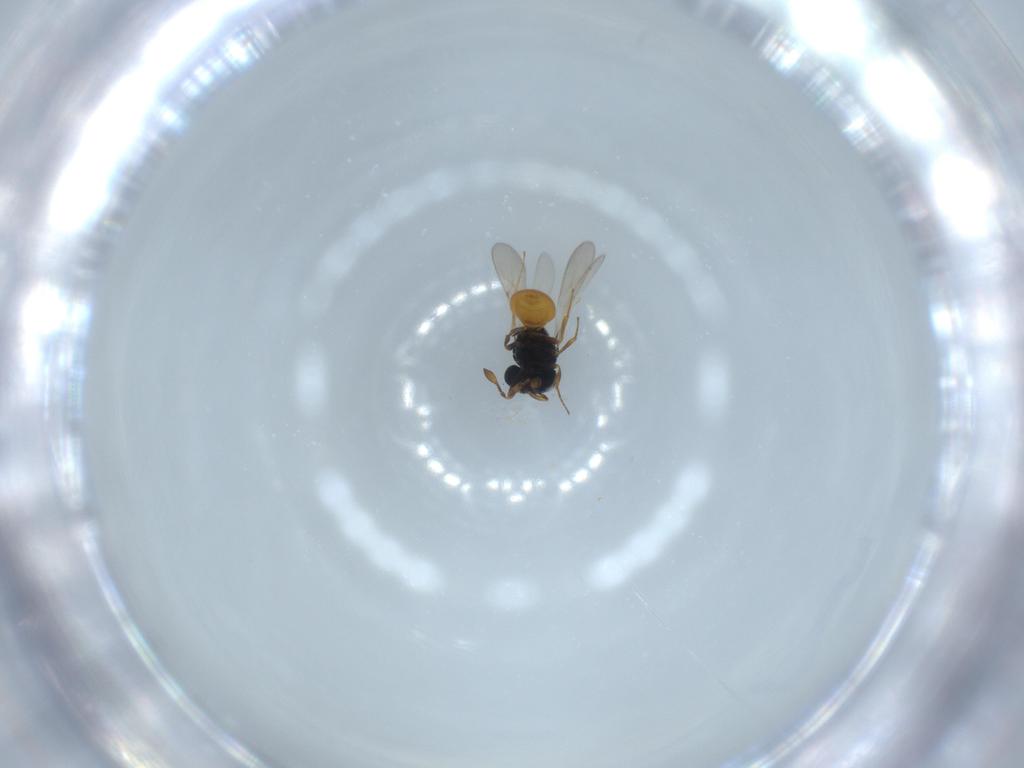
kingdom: Animalia
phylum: Arthropoda
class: Insecta
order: Hymenoptera
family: Scelionidae
